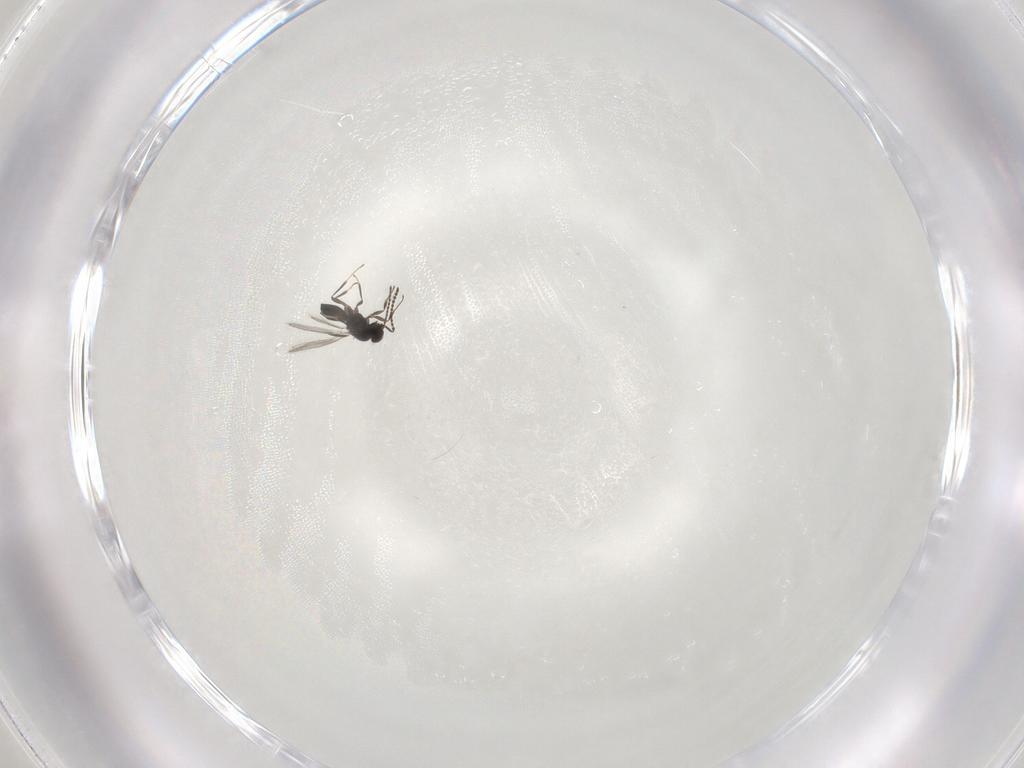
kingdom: Animalia
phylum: Arthropoda
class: Insecta
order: Hymenoptera
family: Scelionidae
